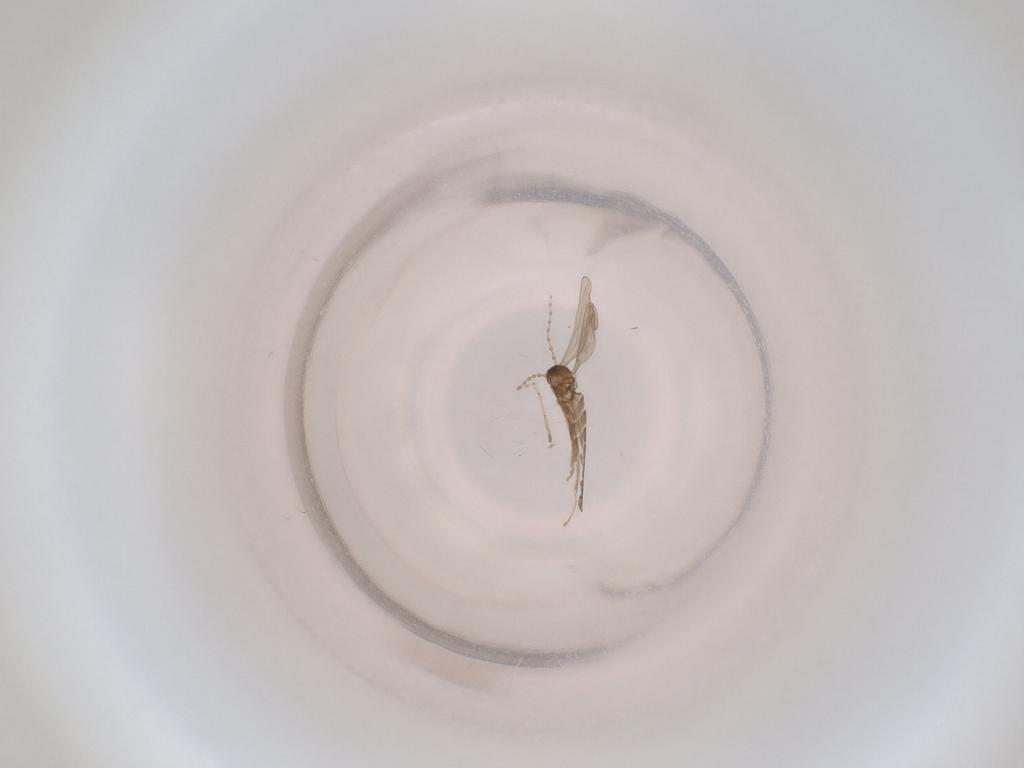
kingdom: Animalia
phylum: Arthropoda
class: Insecta
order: Diptera
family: Cecidomyiidae
